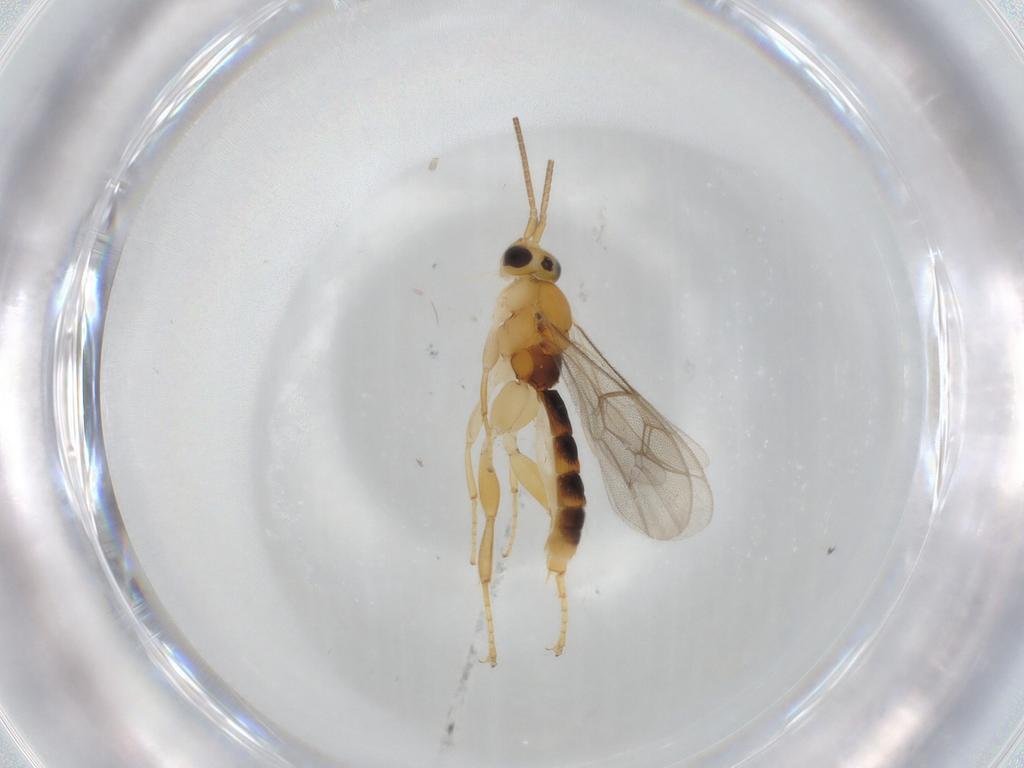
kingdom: Animalia
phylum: Arthropoda
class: Insecta
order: Hymenoptera
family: Ichneumonidae
